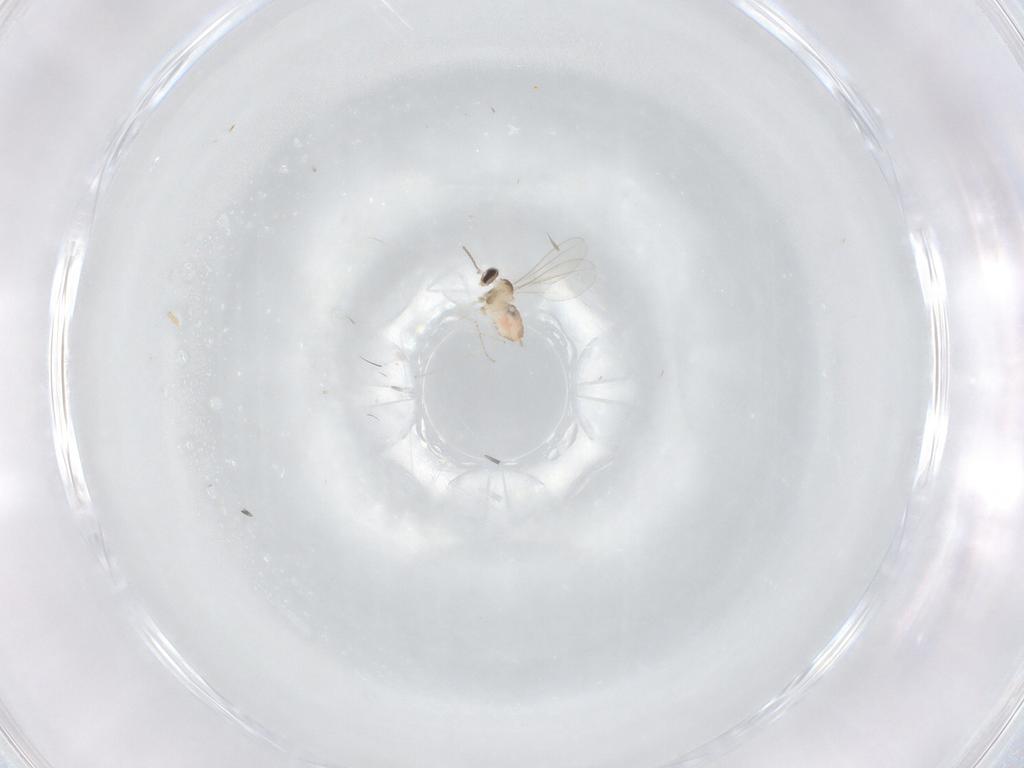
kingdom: Animalia
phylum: Arthropoda
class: Insecta
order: Diptera
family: Cecidomyiidae
